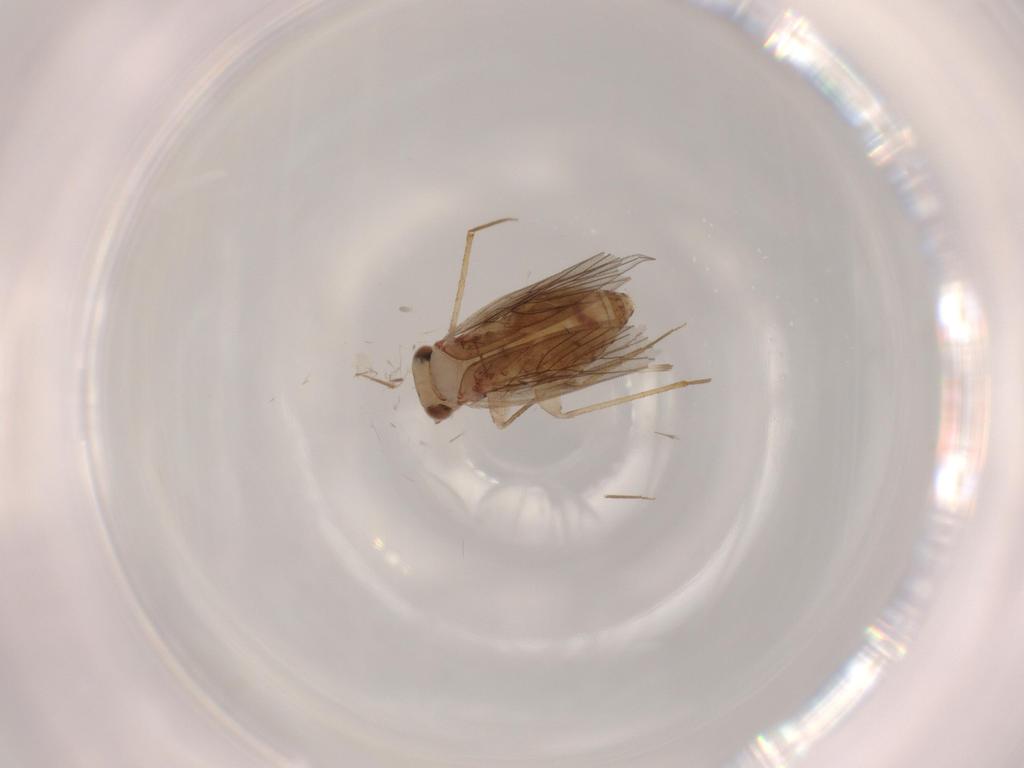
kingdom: Animalia
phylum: Arthropoda
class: Insecta
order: Psocodea
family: Lepidopsocidae
